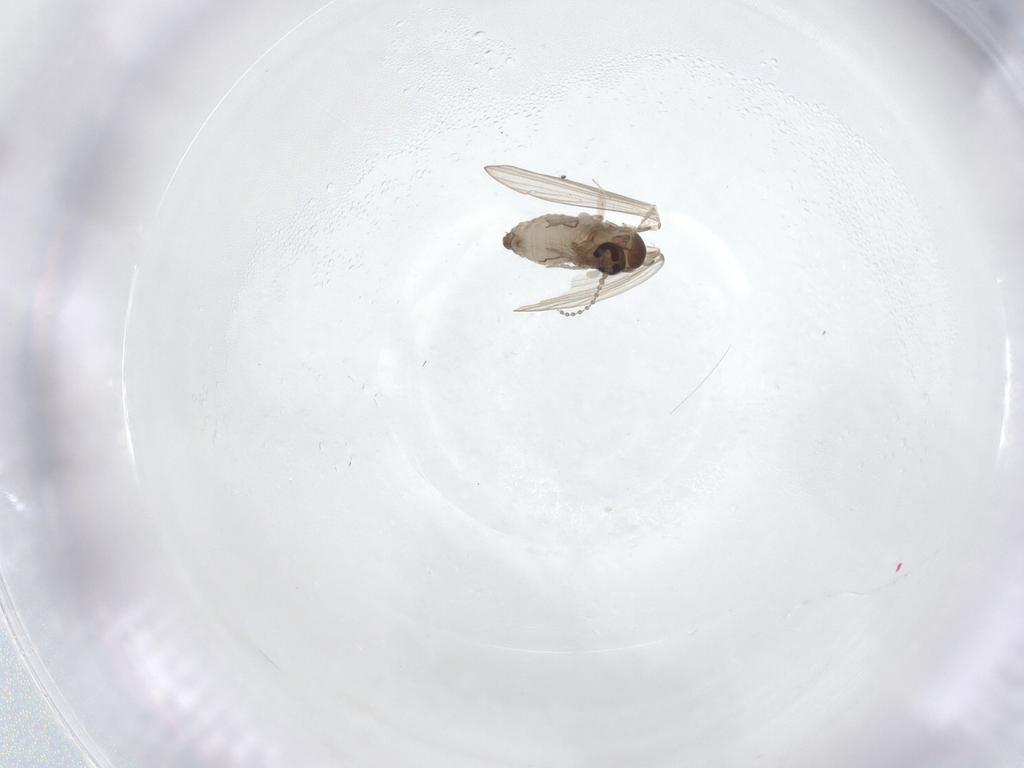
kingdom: Animalia
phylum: Arthropoda
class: Insecta
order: Diptera
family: Psychodidae
